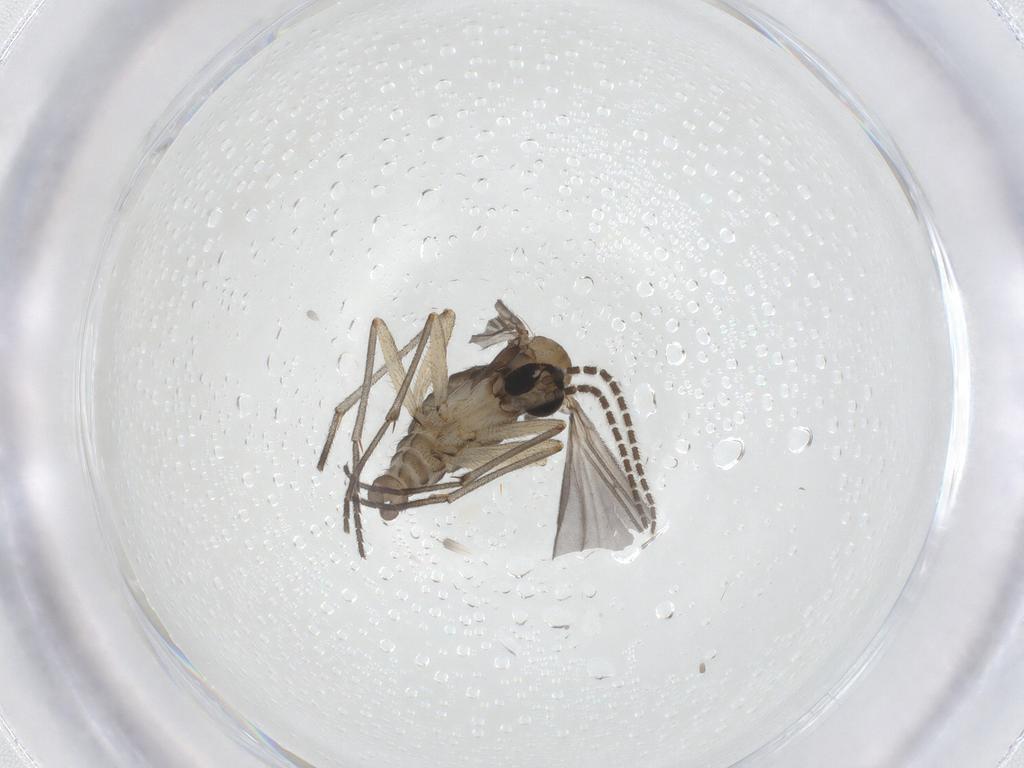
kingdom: Animalia
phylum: Arthropoda
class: Insecta
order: Diptera
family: Sciaridae
